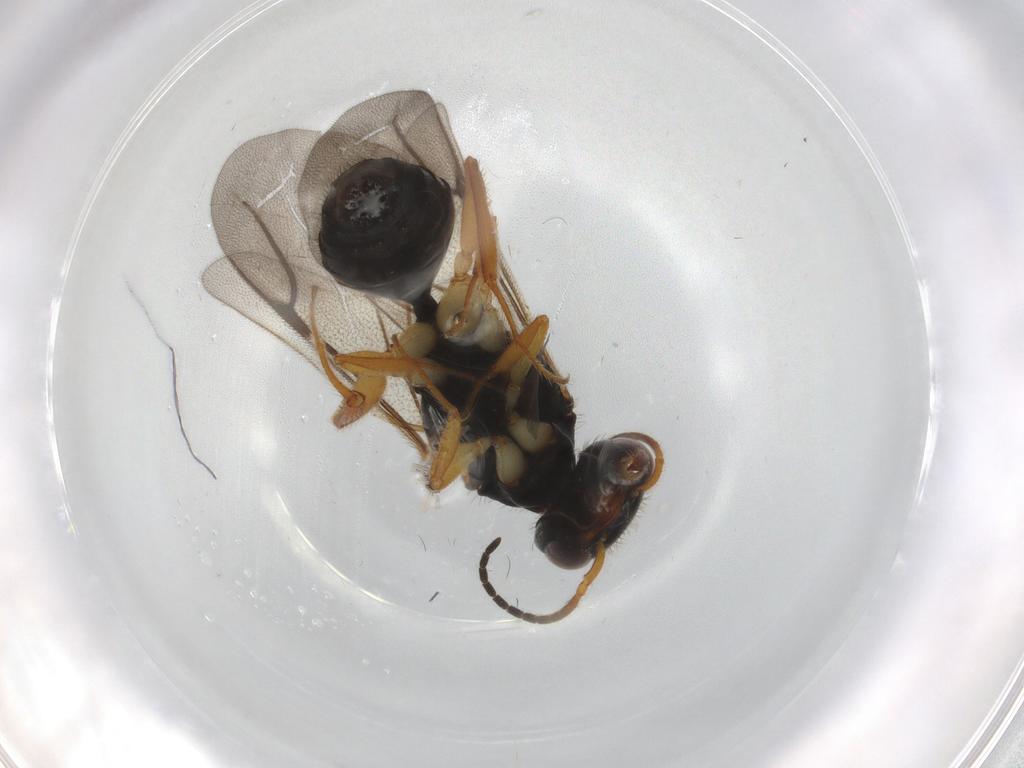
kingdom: Animalia
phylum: Arthropoda
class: Insecta
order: Hymenoptera
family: Bethylidae
